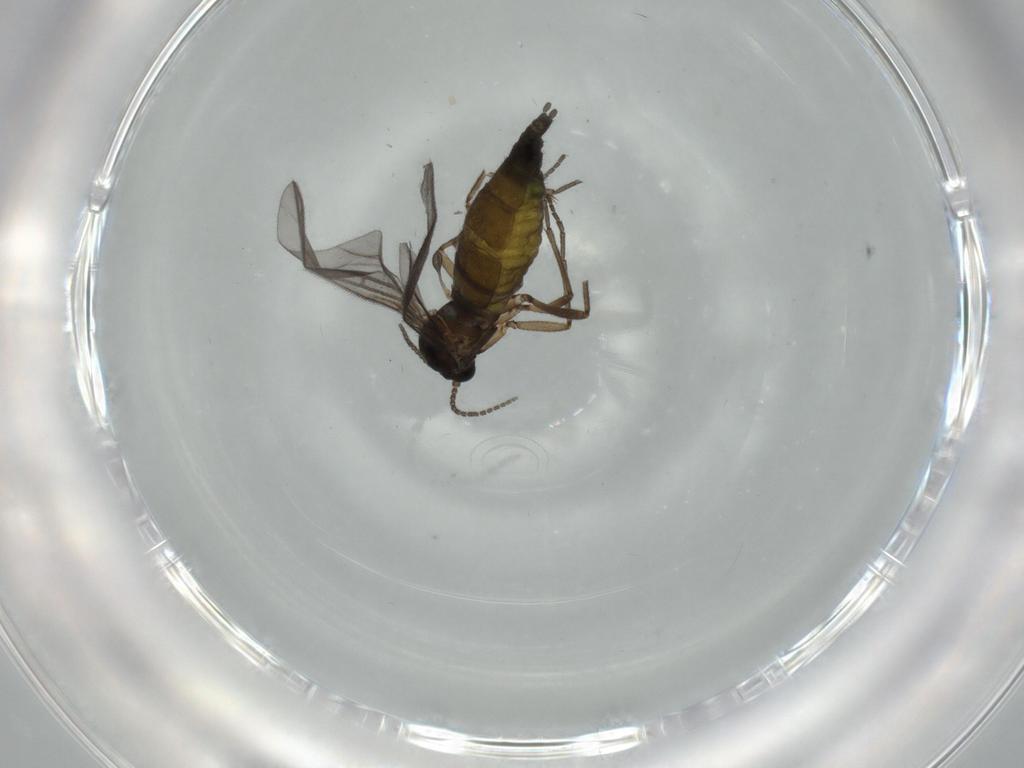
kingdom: Animalia
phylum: Arthropoda
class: Insecta
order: Diptera
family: Sciaridae
